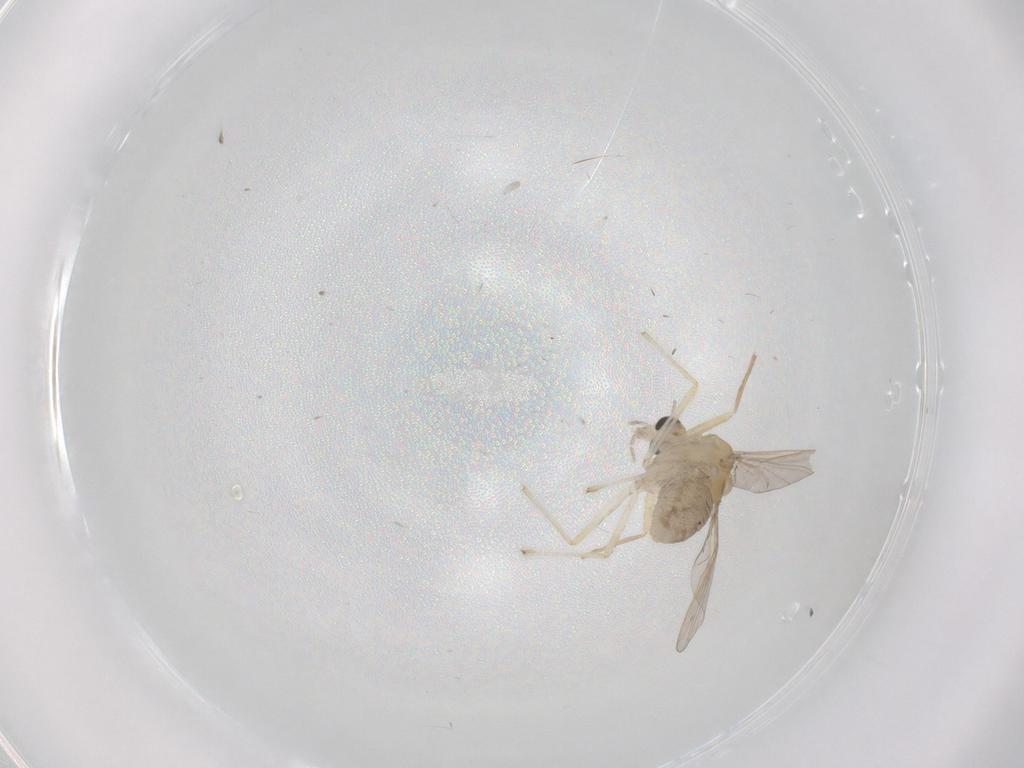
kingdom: Animalia
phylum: Arthropoda
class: Insecta
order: Diptera
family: Chironomidae
